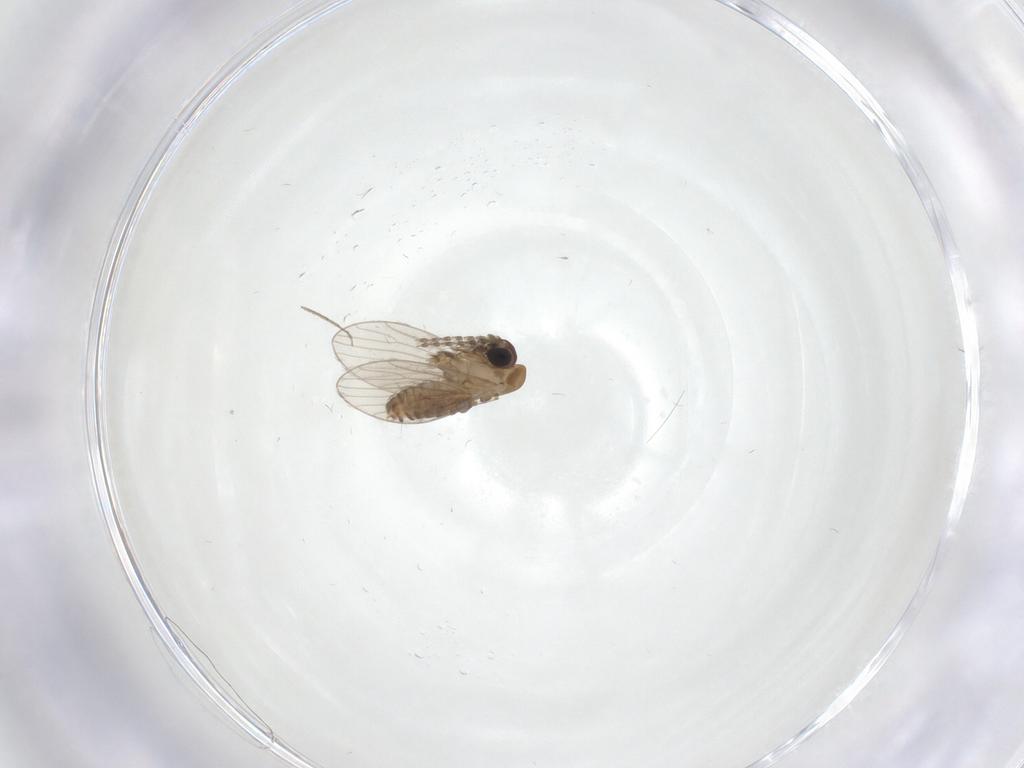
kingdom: Animalia
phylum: Arthropoda
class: Insecta
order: Diptera
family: Chironomidae
